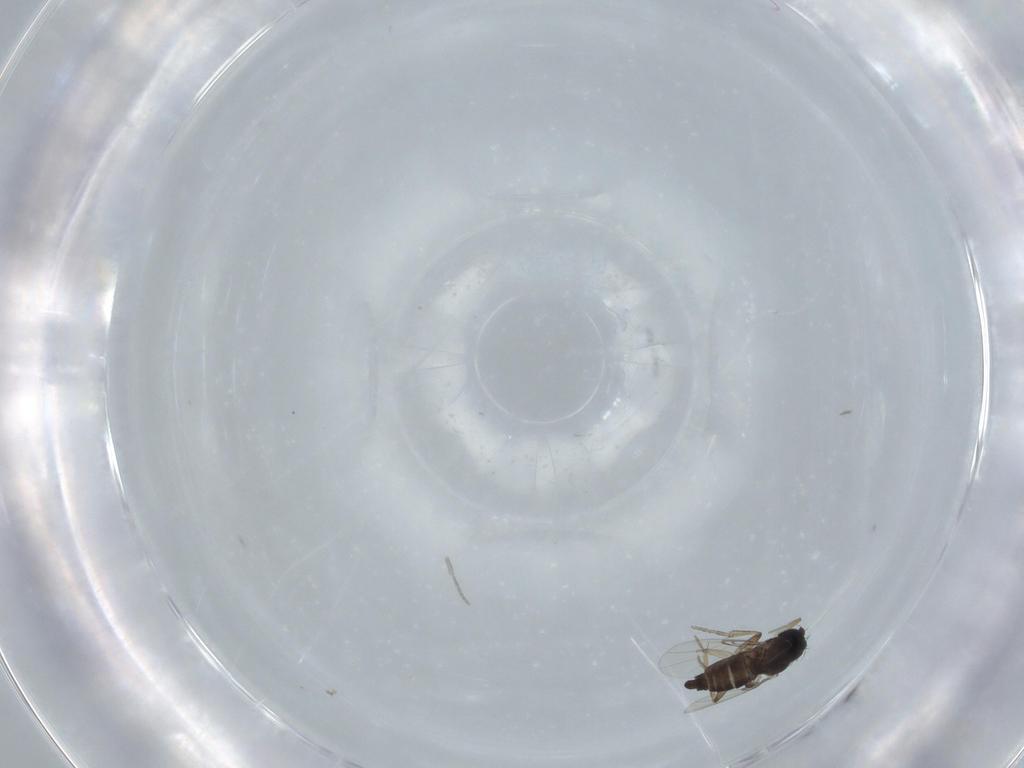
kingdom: Animalia
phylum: Arthropoda
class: Insecta
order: Diptera
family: Phoridae
